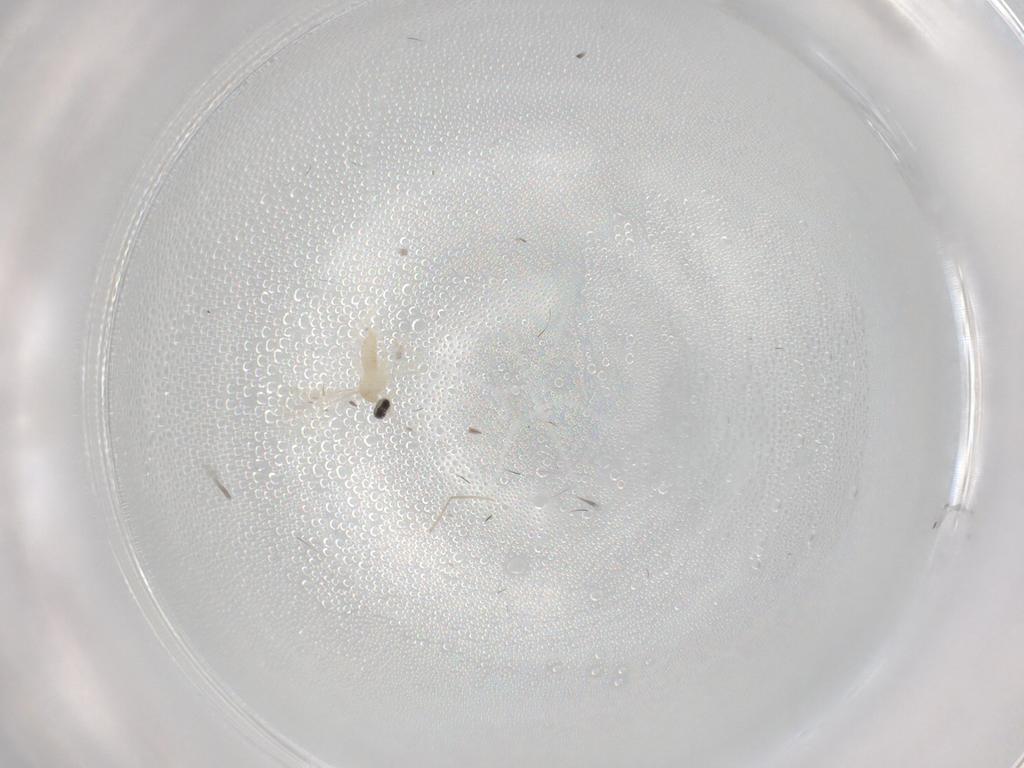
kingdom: Animalia
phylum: Arthropoda
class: Insecta
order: Diptera
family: Cecidomyiidae
